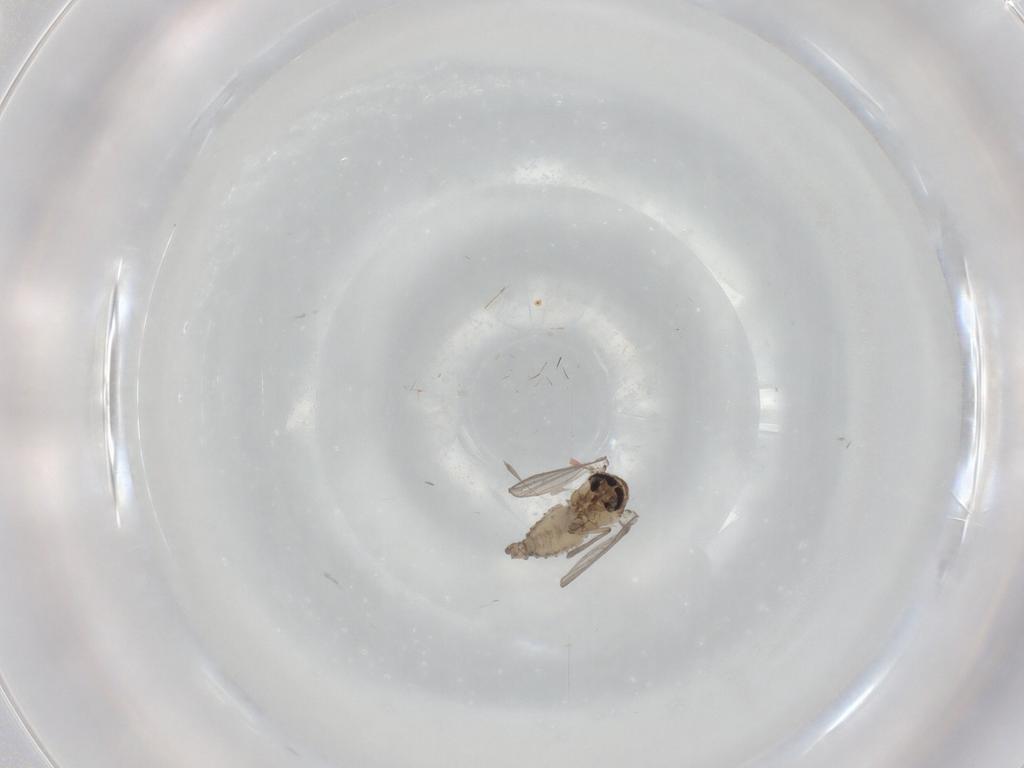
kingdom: Animalia
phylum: Arthropoda
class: Insecta
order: Diptera
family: Psychodidae
